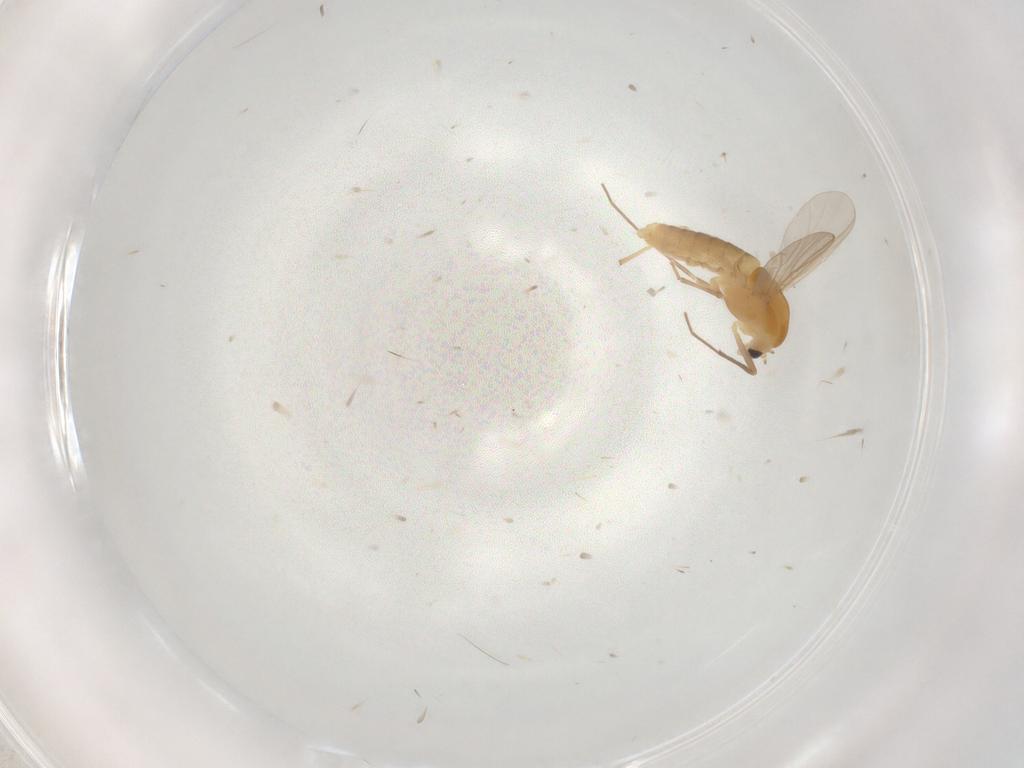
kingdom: Animalia
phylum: Arthropoda
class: Insecta
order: Diptera
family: Chironomidae
